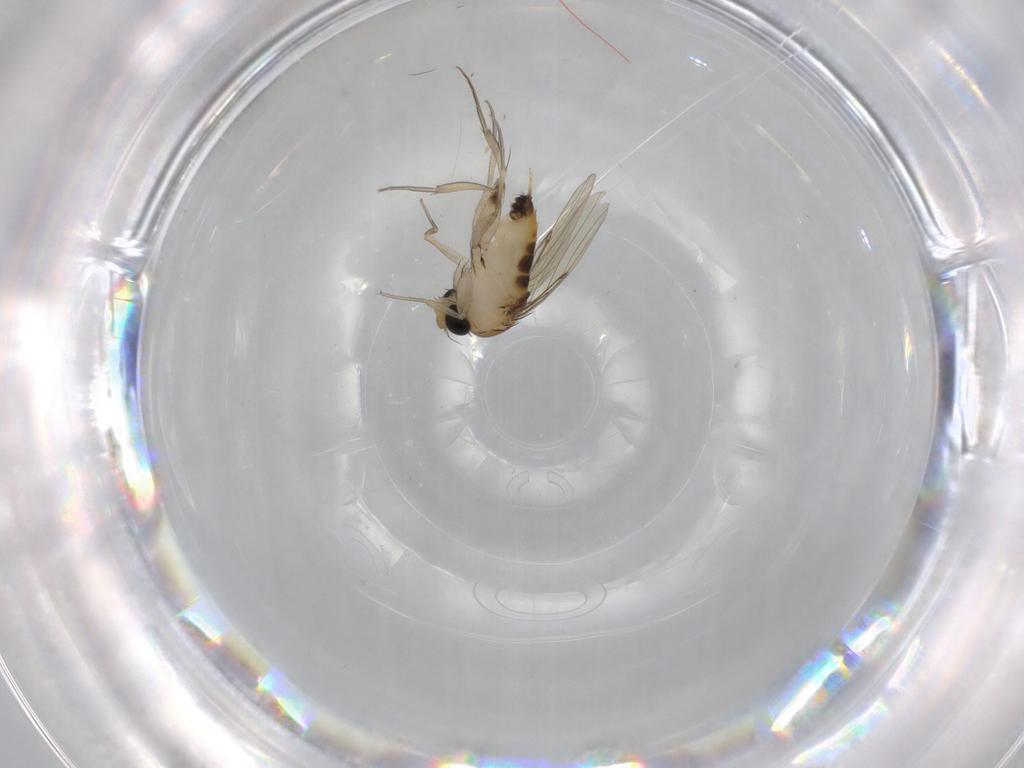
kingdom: Animalia
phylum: Arthropoda
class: Insecta
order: Diptera
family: Phoridae
